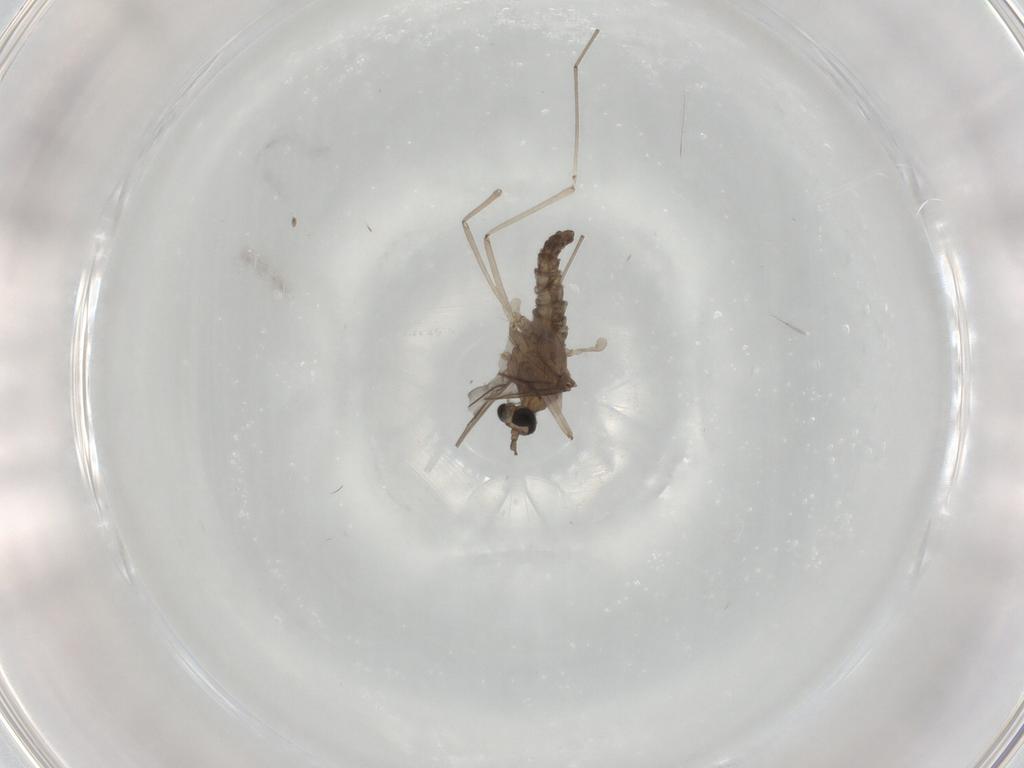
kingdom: Animalia
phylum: Arthropoda
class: Insecta
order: Diptera
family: Cecidomyiidae
